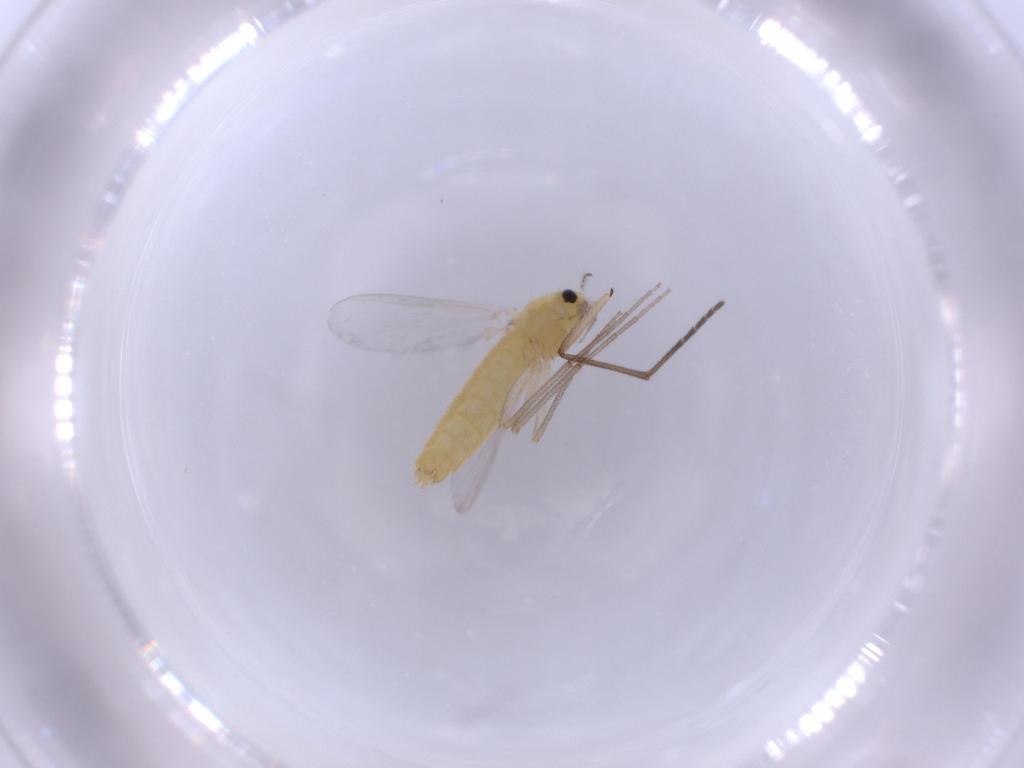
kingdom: Animalia
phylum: Arthropoda
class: Insecta
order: Diptera
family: Chironomidae
